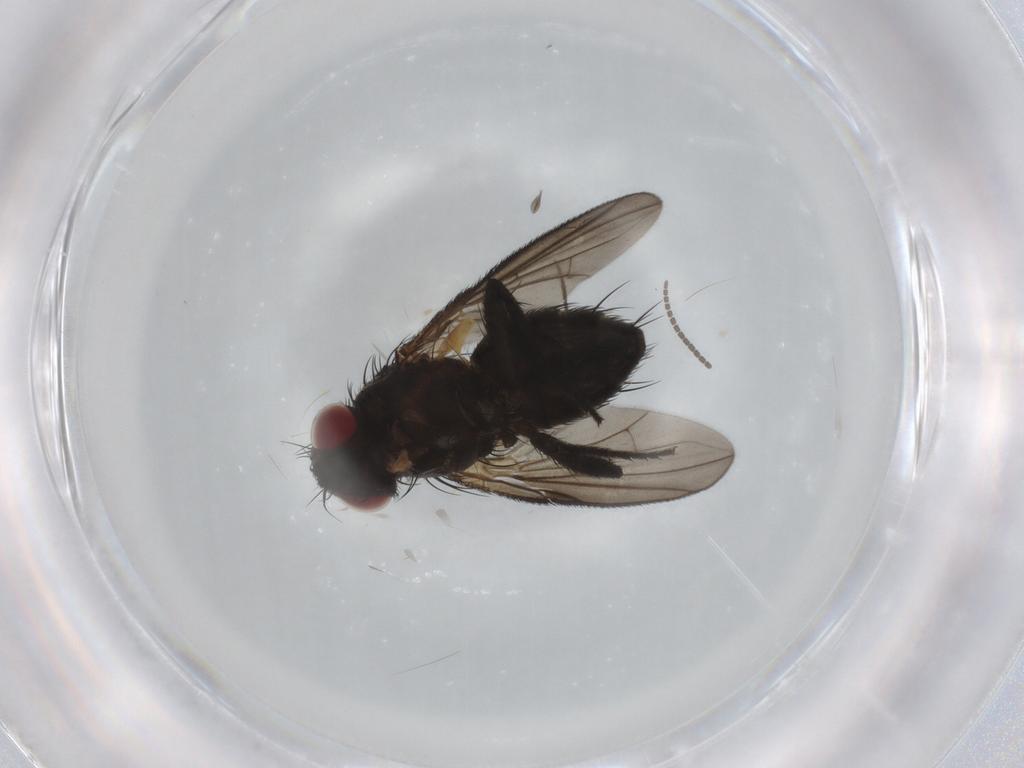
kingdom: Animalia
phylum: Arthropoda
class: Insecta
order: Diptera
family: Sciaridae
